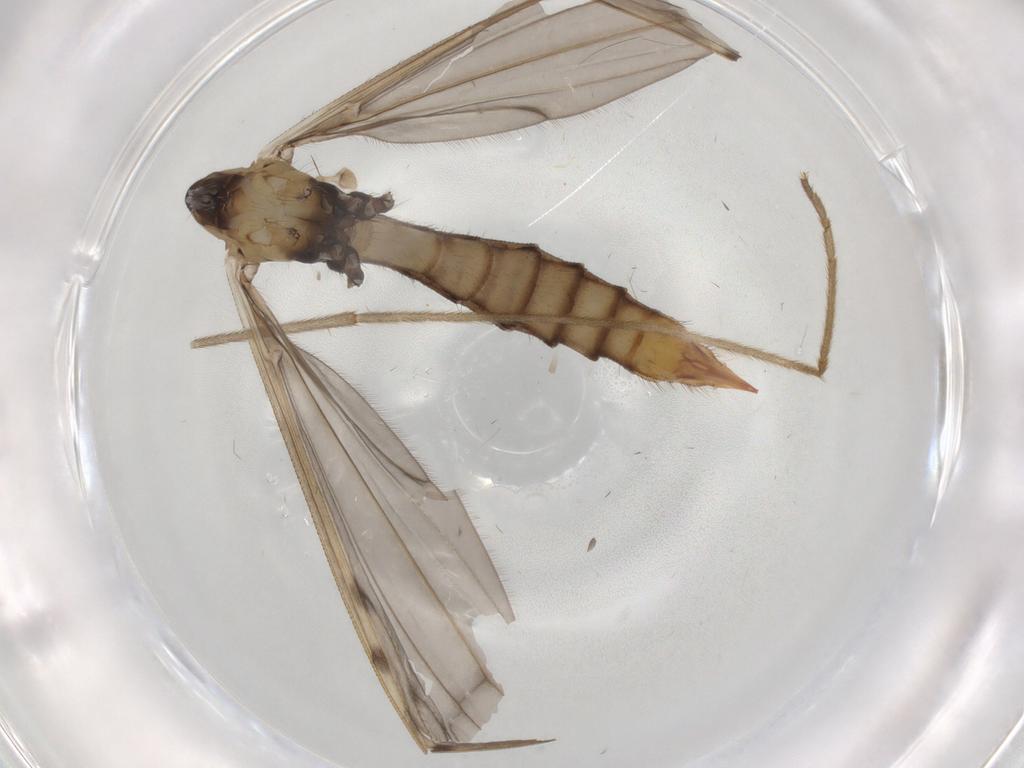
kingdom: Animalia
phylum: Arthropoda
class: Insecta
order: Diptera
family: Limoniidae
